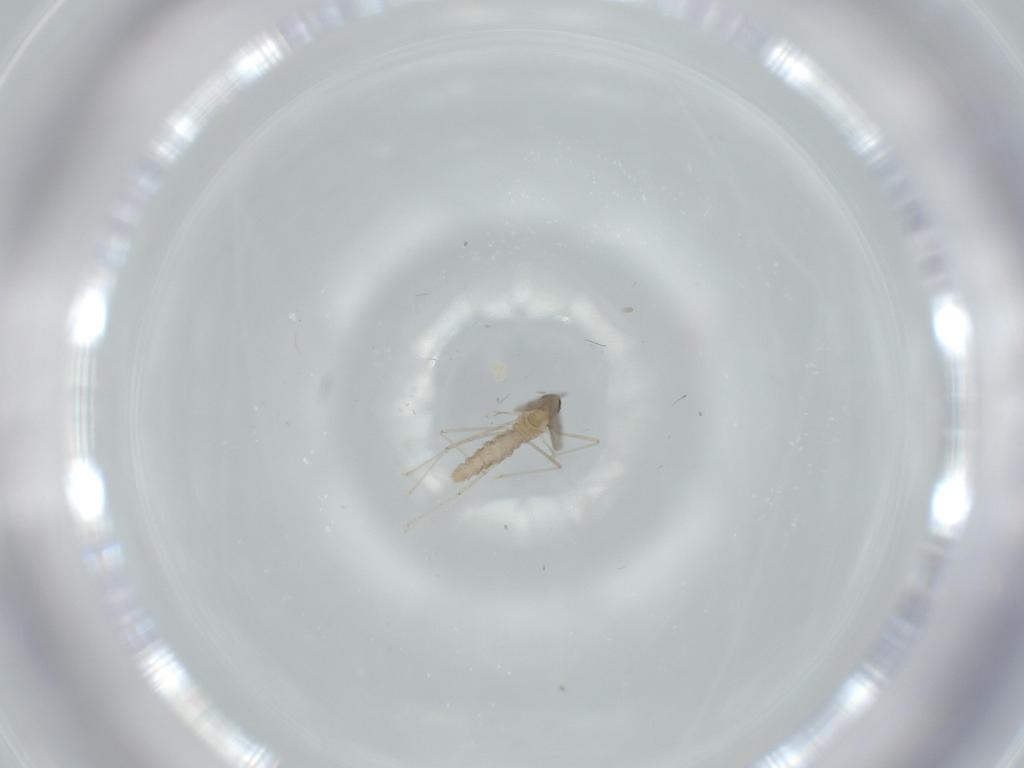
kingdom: Animalia
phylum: Arthropoda
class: Insecta
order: Diptera
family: Cecidomyiidae
